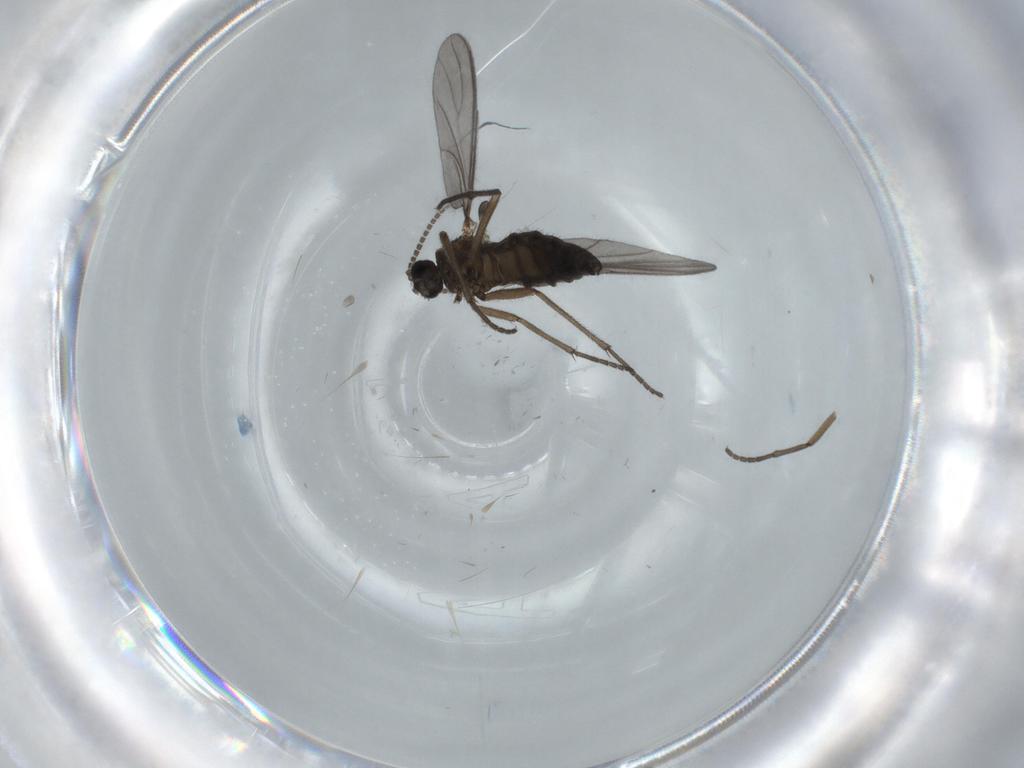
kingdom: Animalia
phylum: Arthropoda
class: Insecta
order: Diptera
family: Sciaridae
